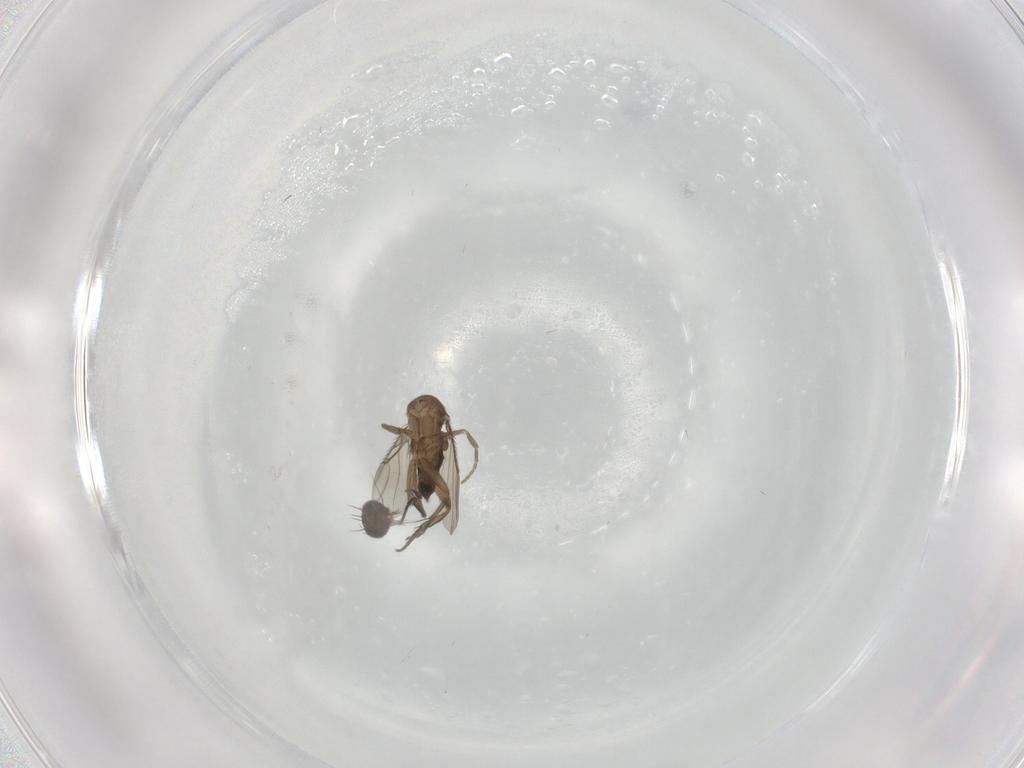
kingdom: Animalia
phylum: Arthropoda
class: Insecta
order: Diptera
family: Phoridae
